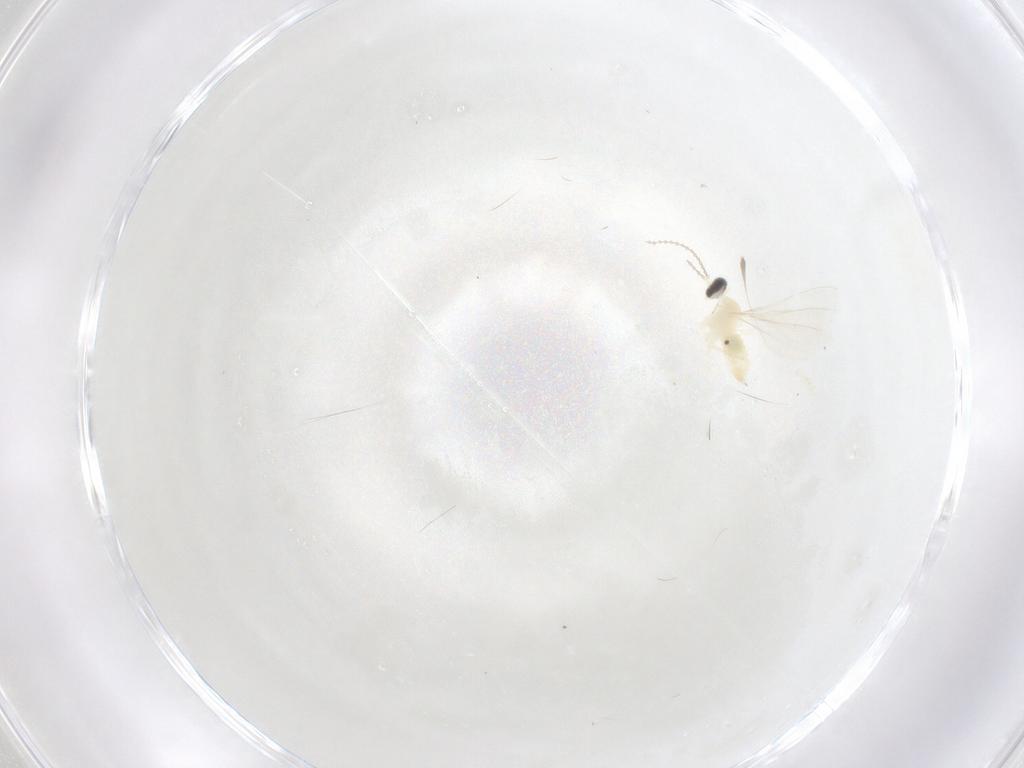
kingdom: Animalia
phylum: Arthropoda
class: Insecta
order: Diptera
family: Cecidomyiidae
